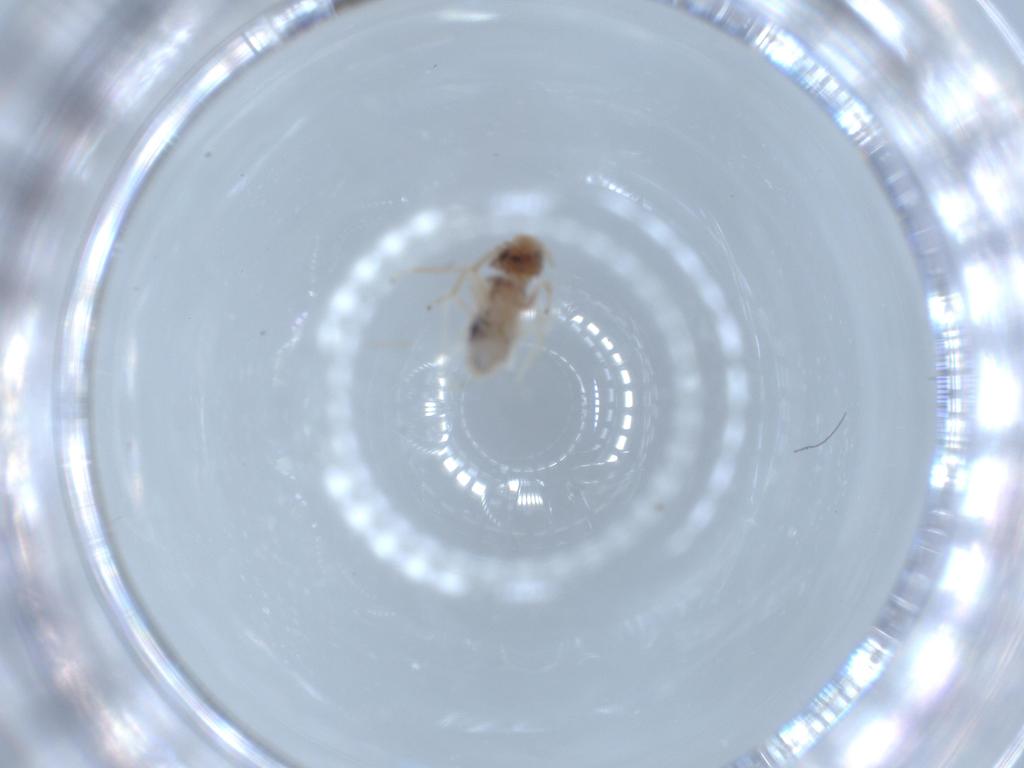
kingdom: Animalia
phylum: Arthropoda
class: Insecta
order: Psocodea
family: Caeciliusidae
